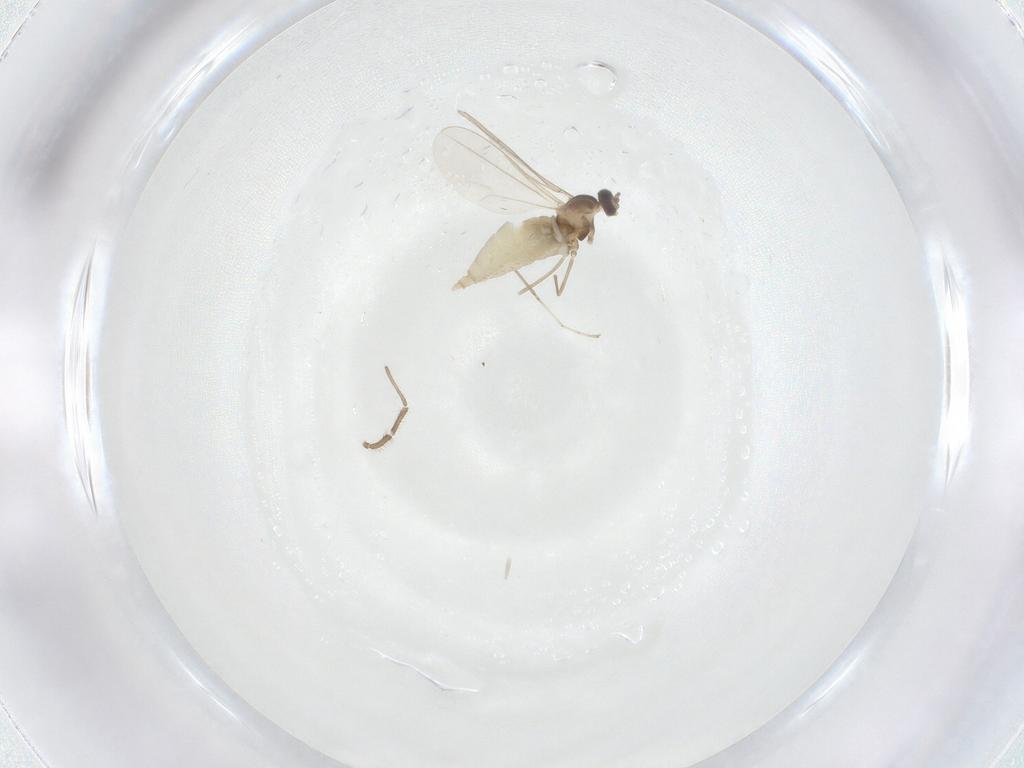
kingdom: Animalia
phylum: Arthropoda
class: Insecta
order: Diptera
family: Cecidomyiidae
